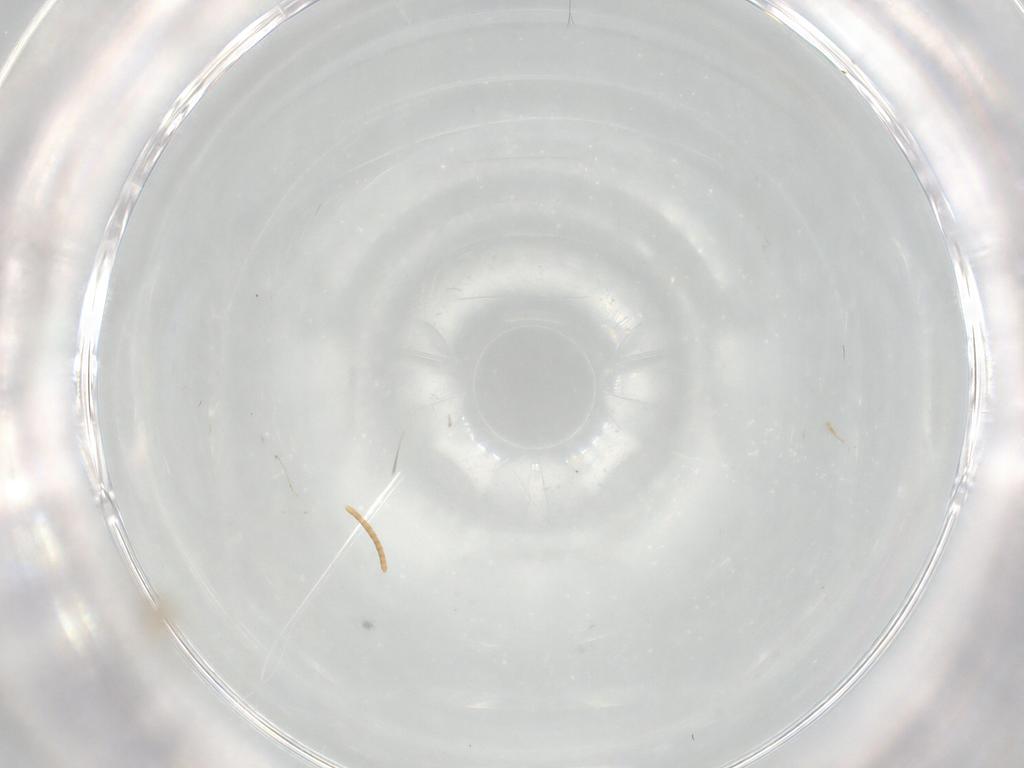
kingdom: Animalia
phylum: Arthropoda
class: Insecta
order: Diptera
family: Cecidomyiidae
